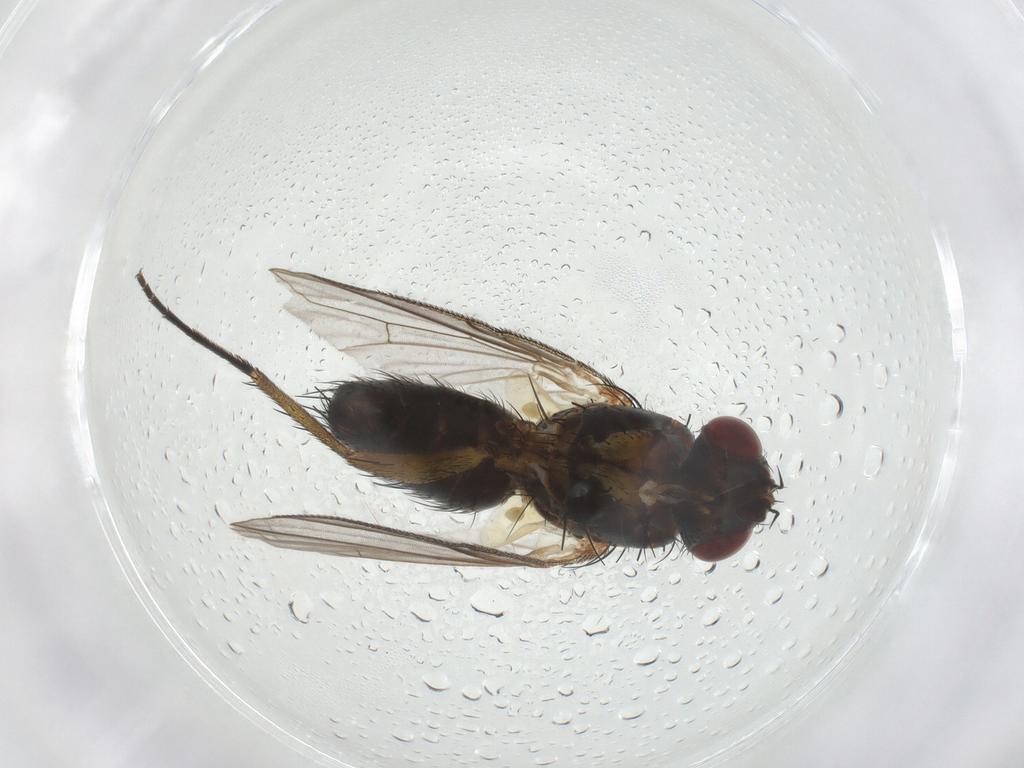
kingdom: Animalia
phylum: Arthropoda
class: Insecta
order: Diptera
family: Anthomyiidae
